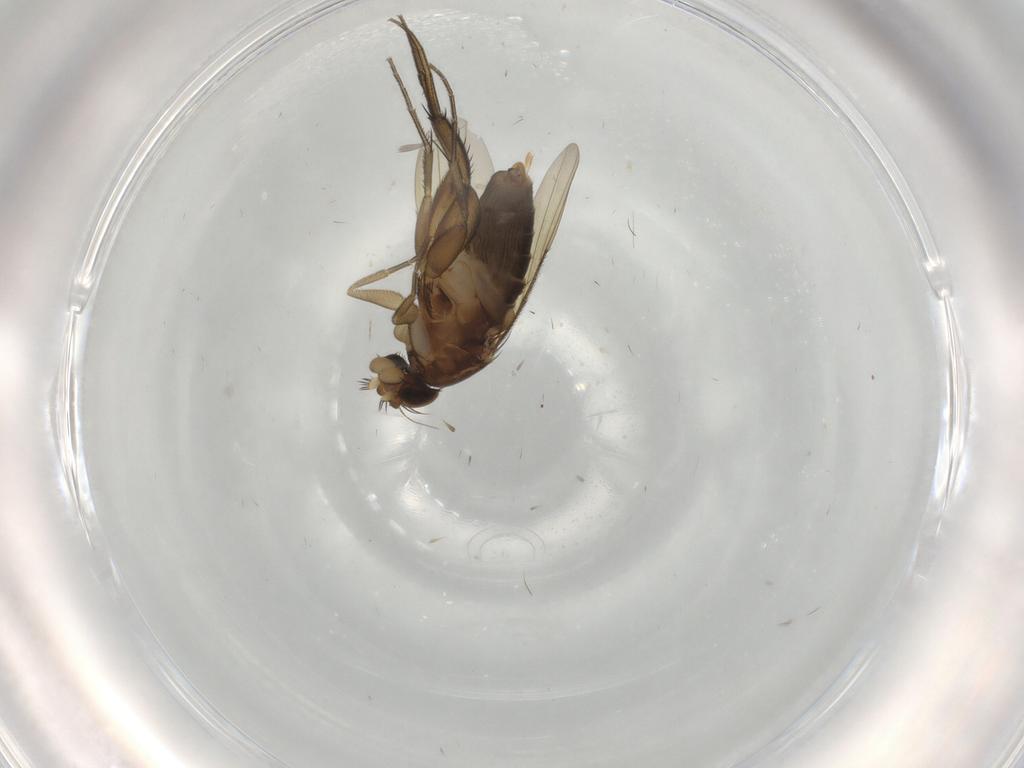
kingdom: Animalia
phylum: Arthropoda
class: Insecta
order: Diptera
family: Phoridae
